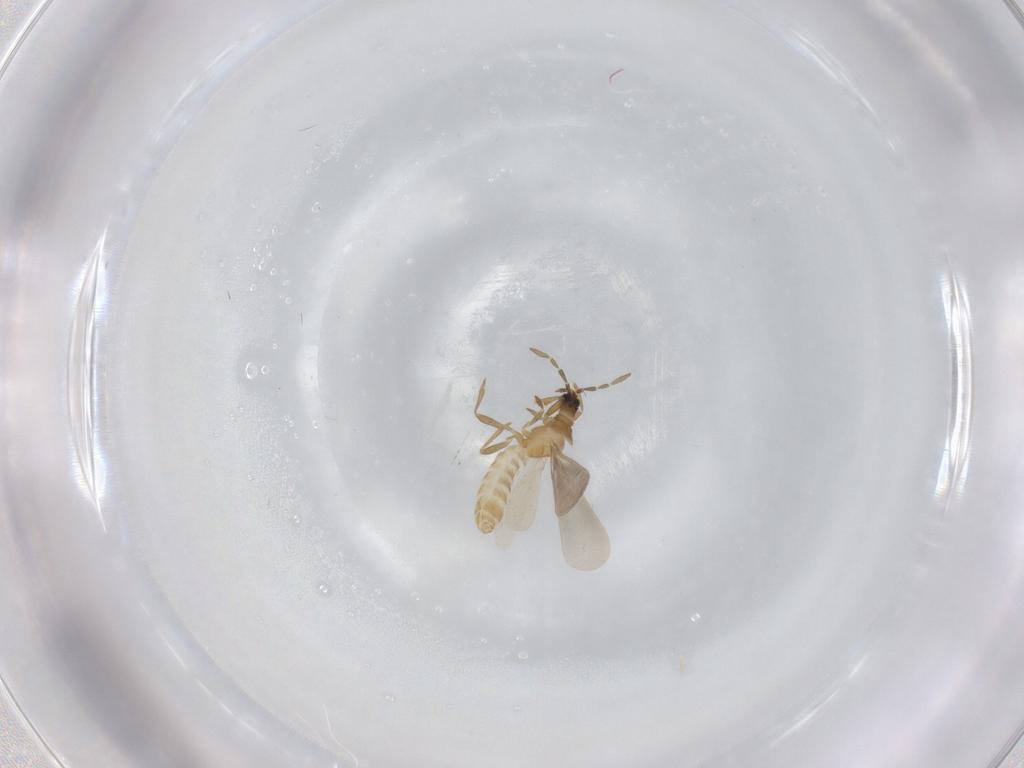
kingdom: Animalia
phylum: Arthropoda
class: Insecta
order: Hemiptera
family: Enicocephalidae
